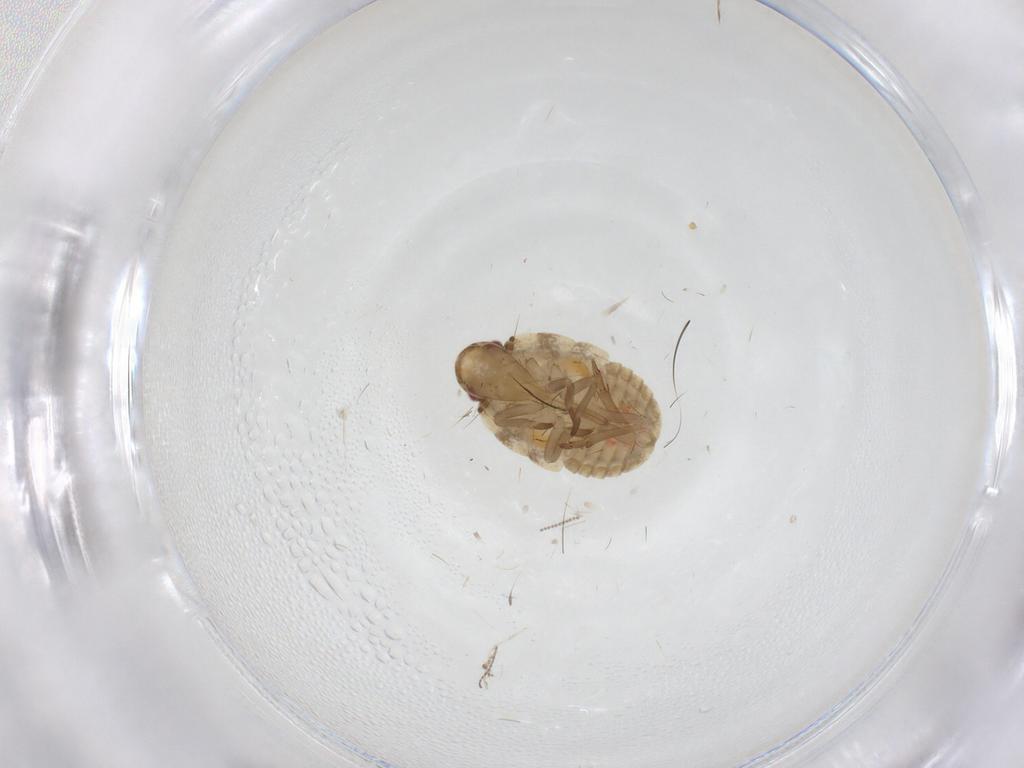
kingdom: Animalia
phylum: Arthropoda
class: Insecta
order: Hemiptera
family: Flatidae
